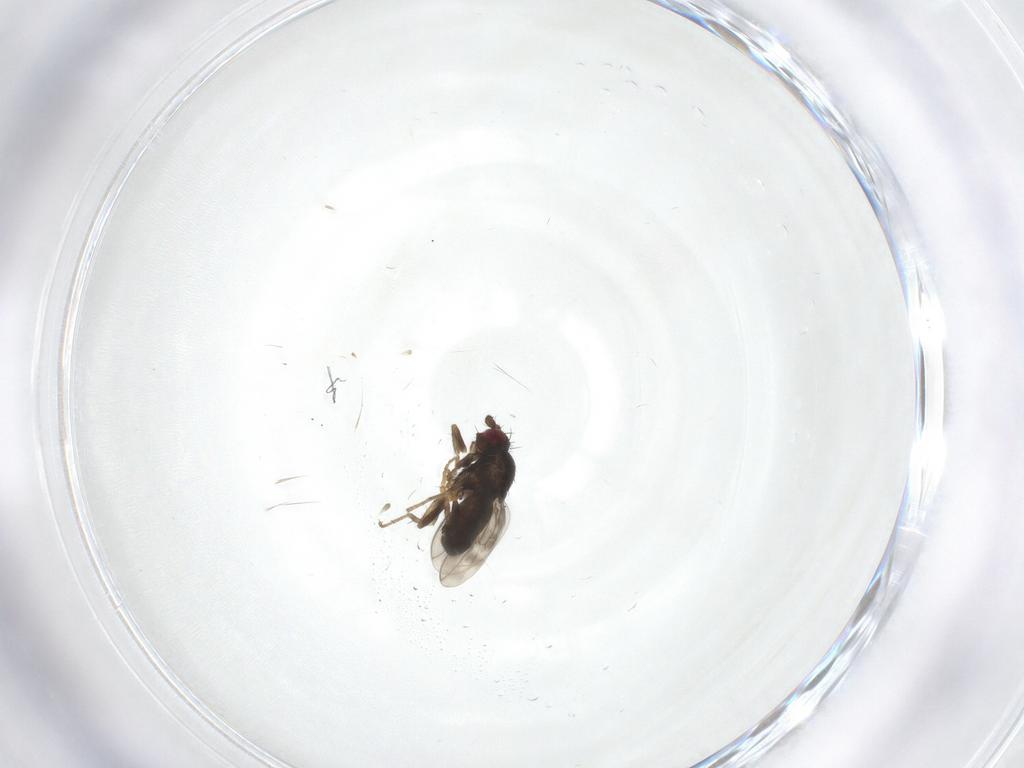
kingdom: Animalia
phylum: Arthropoda
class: Insecta
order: Diptera
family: Sphaeroceridae
